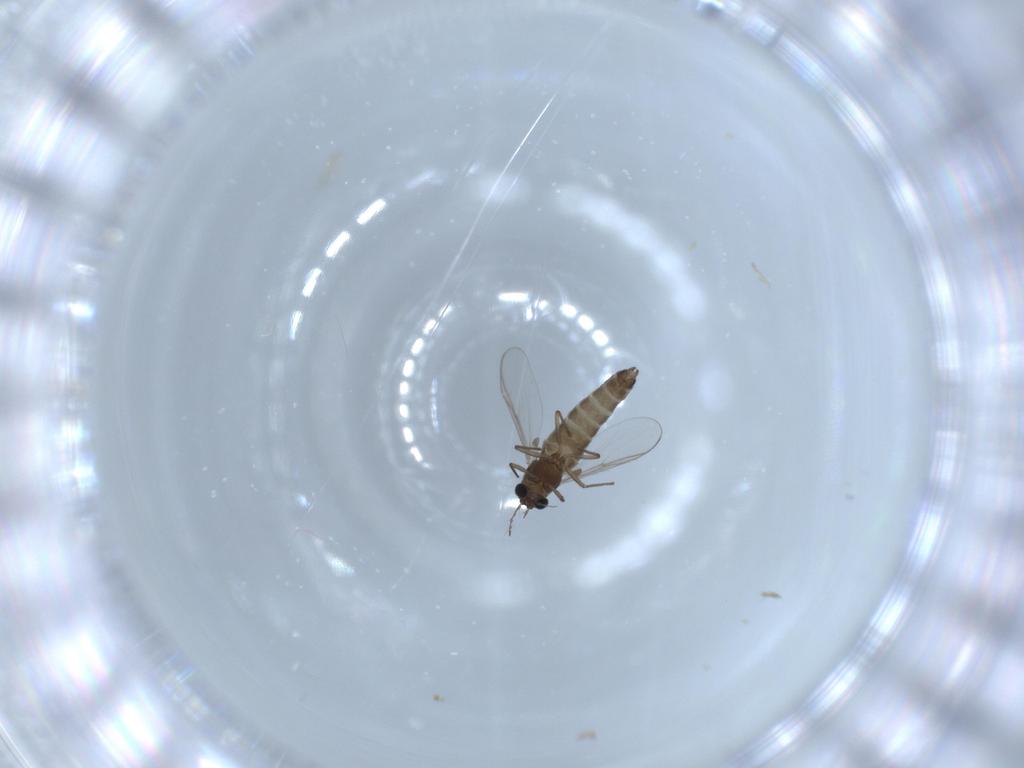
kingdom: Animalia
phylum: Arthropoda
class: Insecta
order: Diptera
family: Chironomidae
